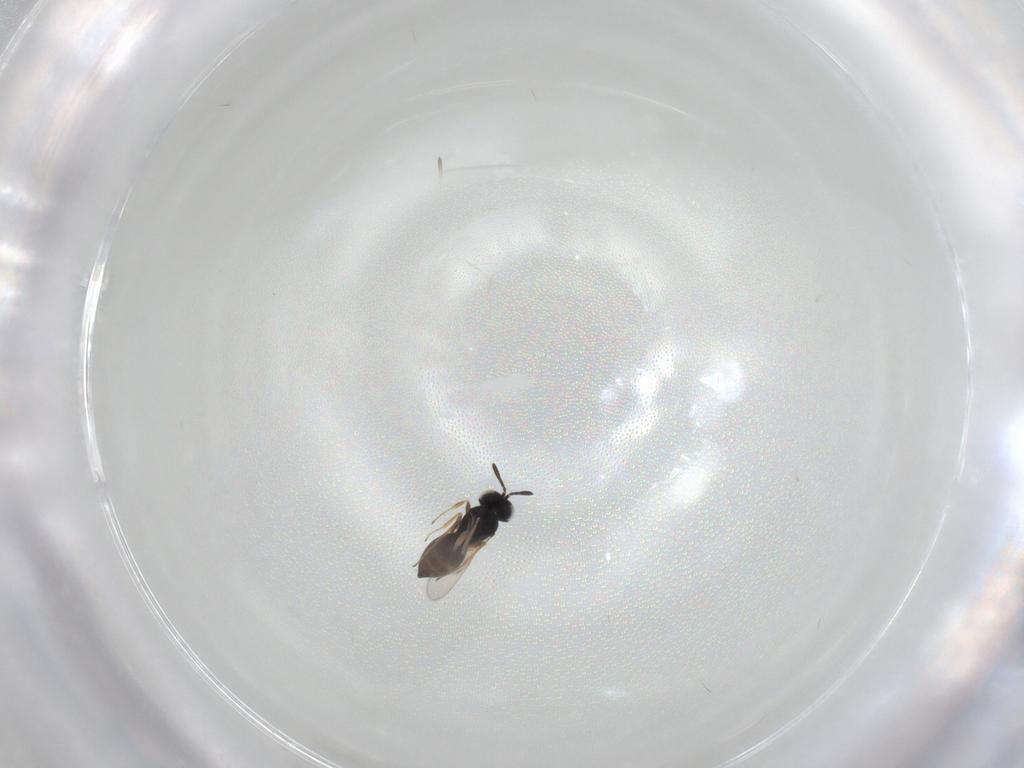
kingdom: Animalia
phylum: Arthropoda
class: Insecta
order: Hymenoptera
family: Scelionidae
